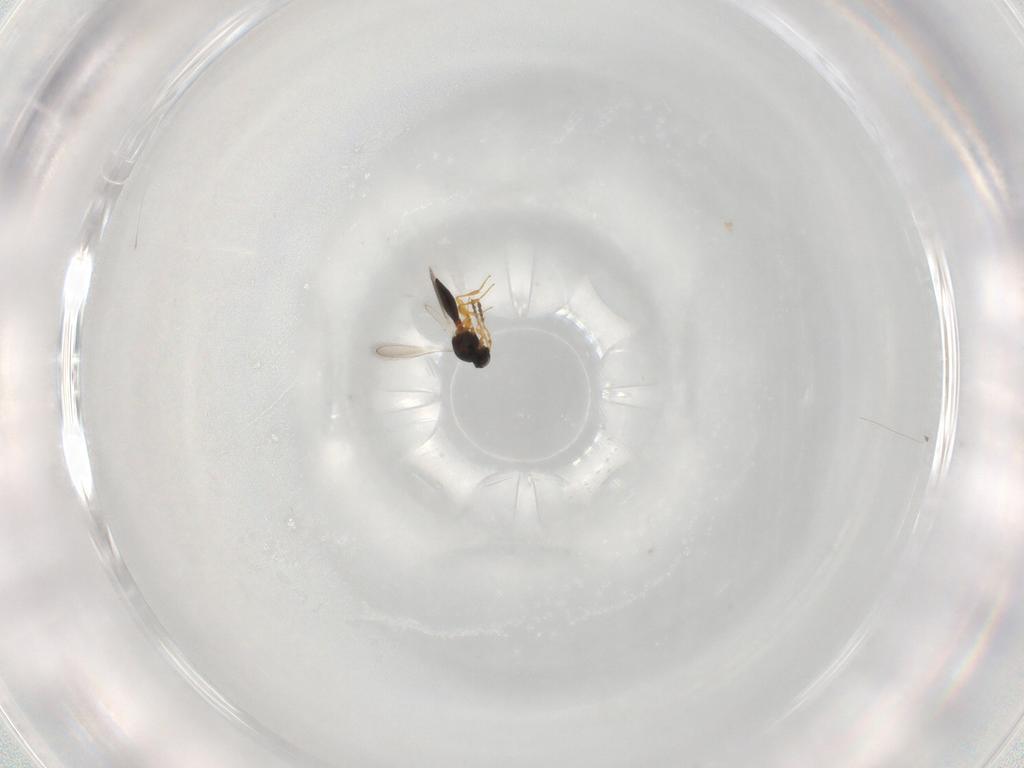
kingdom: Animalia
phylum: Arthropoda
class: Insecta
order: Hymenoptera
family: Platygastridae
